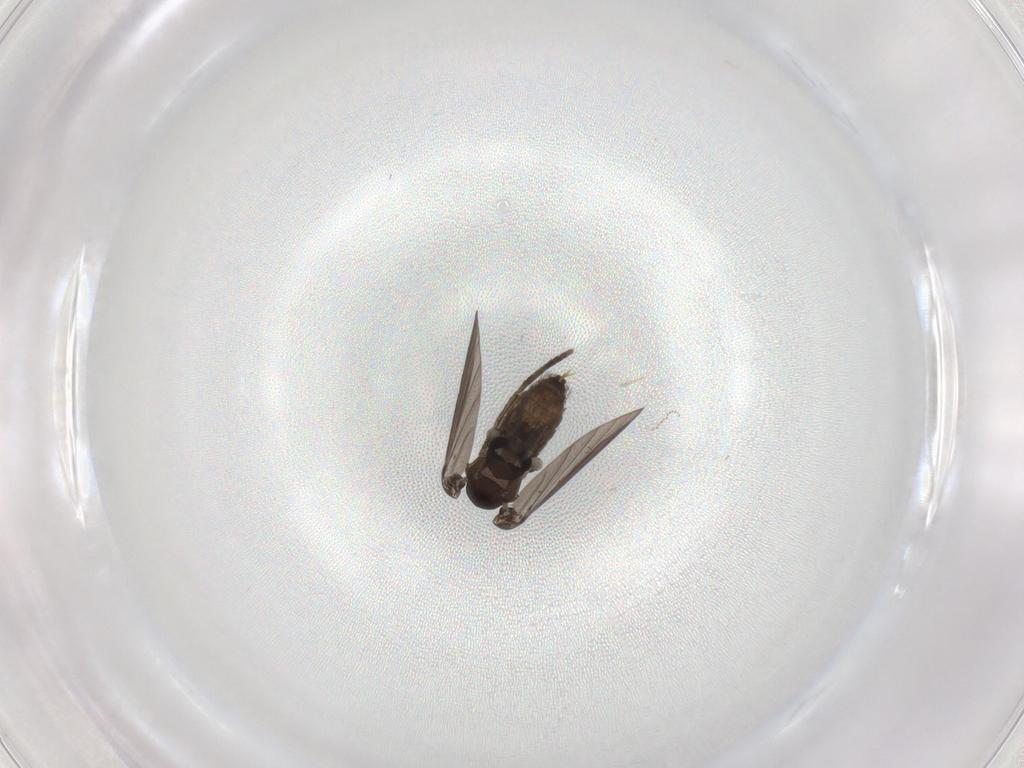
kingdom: Animalia
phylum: Arthropoda
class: Insecta
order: Diptera
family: Psychodidae
